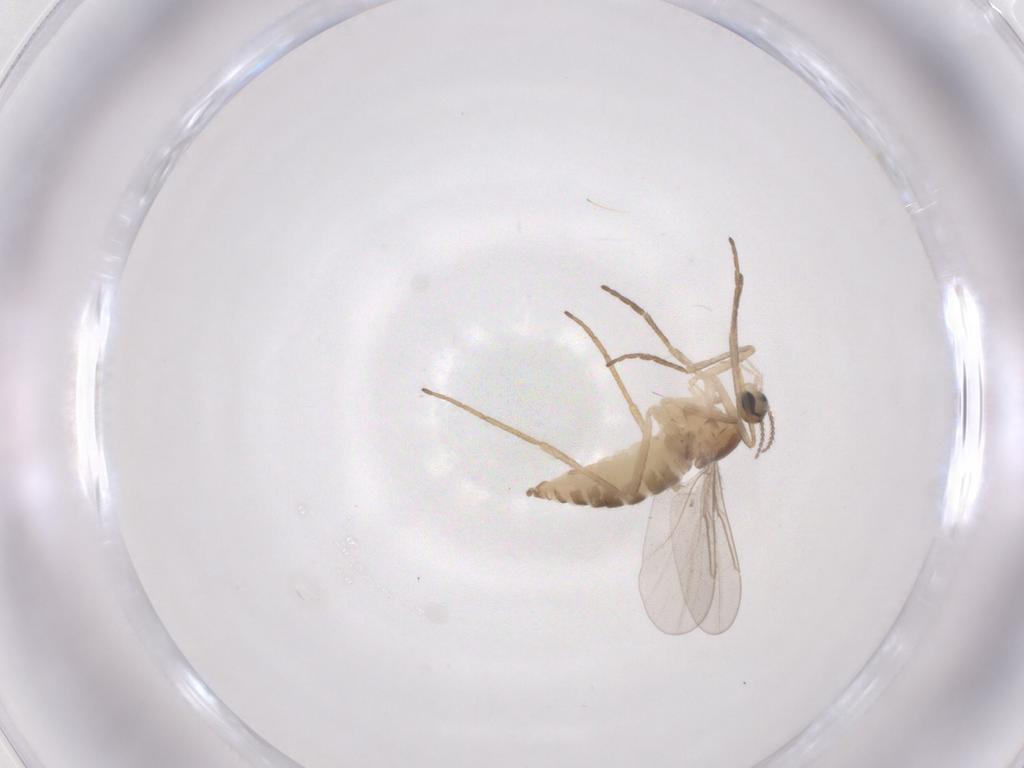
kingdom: Animalia
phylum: Arthropoda
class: Insecta
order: Diptera
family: Cecidomyiidae
